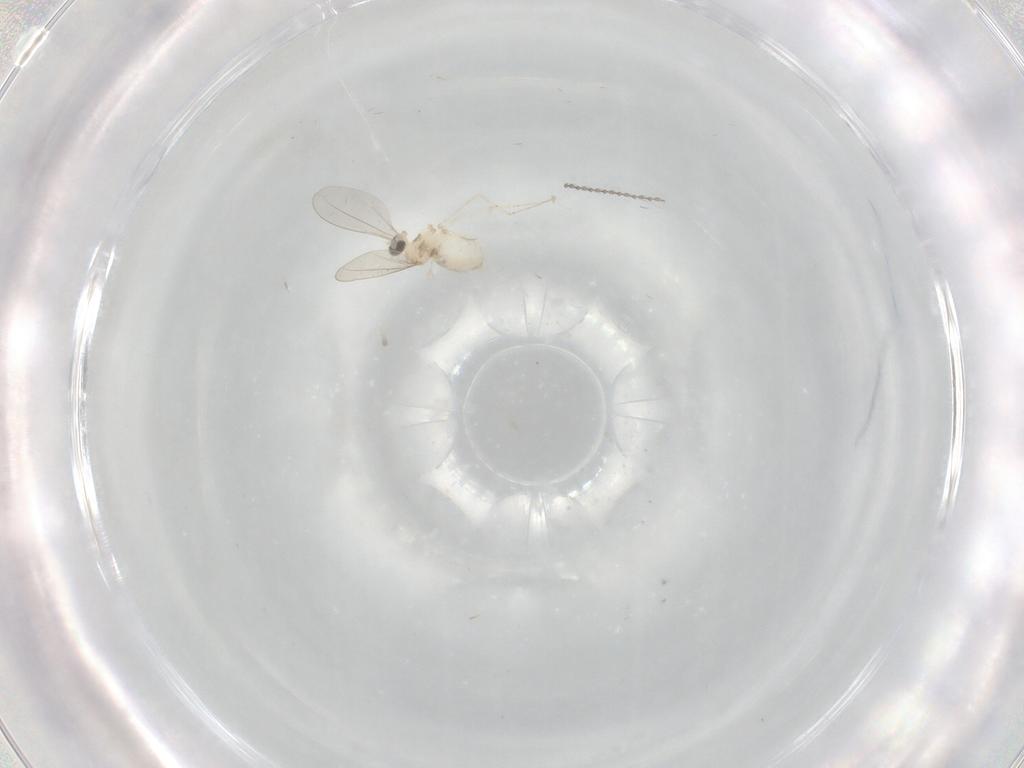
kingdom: Animalia
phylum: Arthropoda
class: Insecta
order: Diptera
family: Cecidomyiidae
